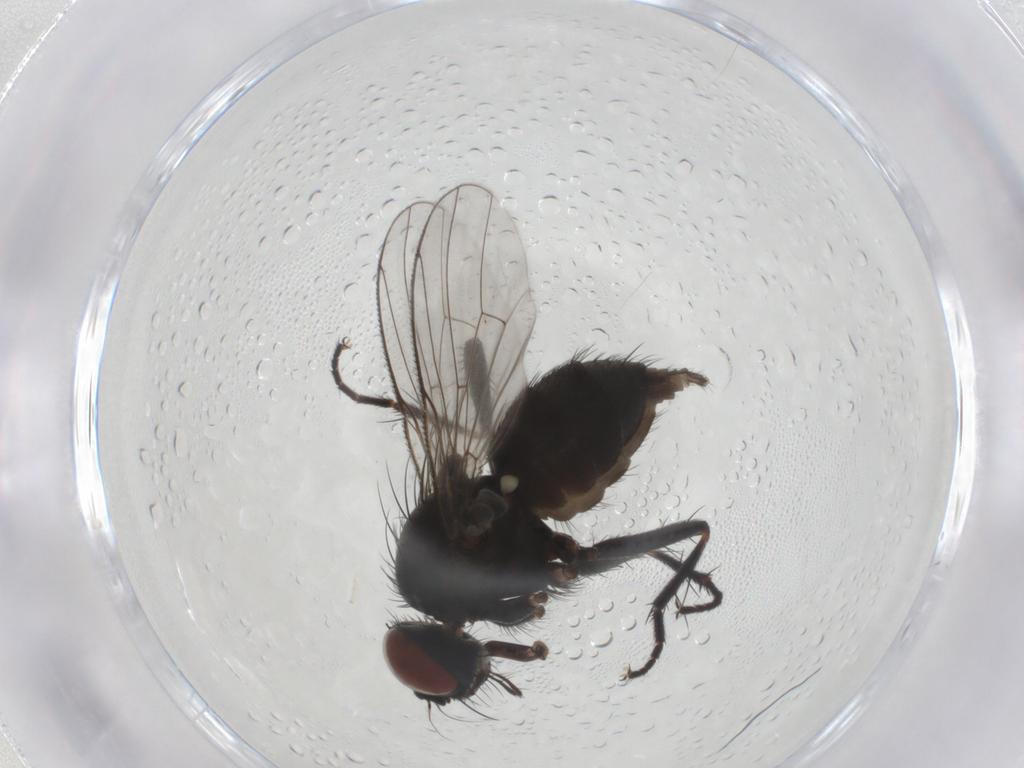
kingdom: Animalia
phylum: Arthropoda
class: Insecta
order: Diptera
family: Muscidae
